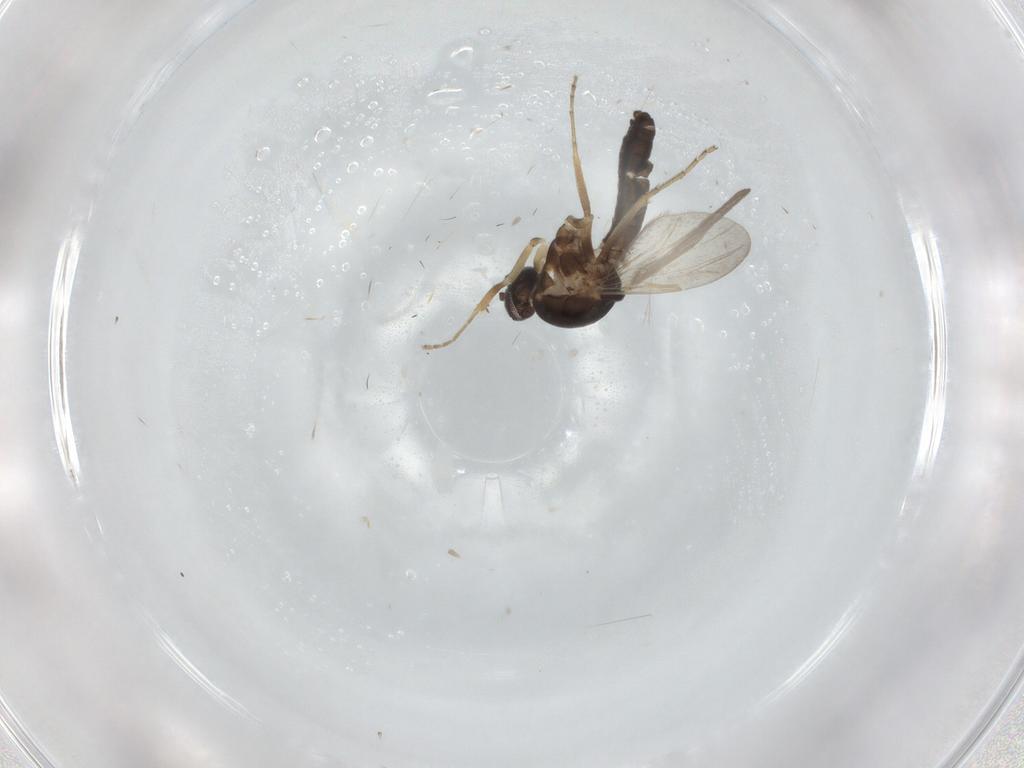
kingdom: Animalia
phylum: Arthropoda
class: Insecta
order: Diptera
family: Ceratopogonidae
